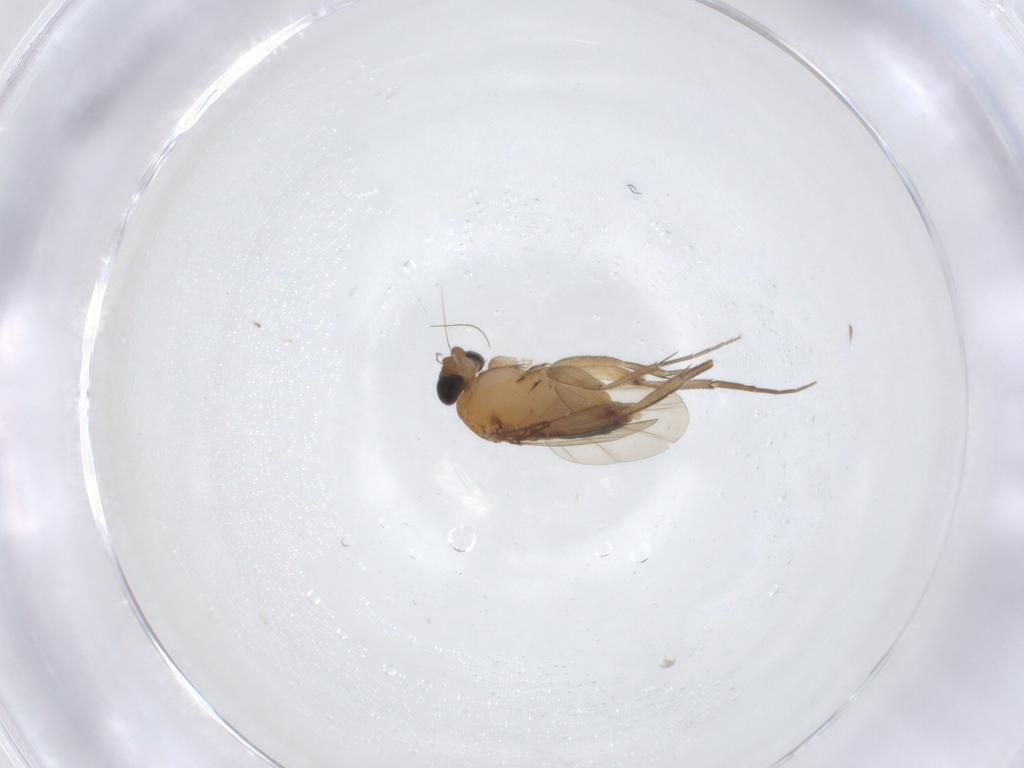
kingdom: Animalia
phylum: Arthropoda
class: Insecta
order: Diptera
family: Phoridae
